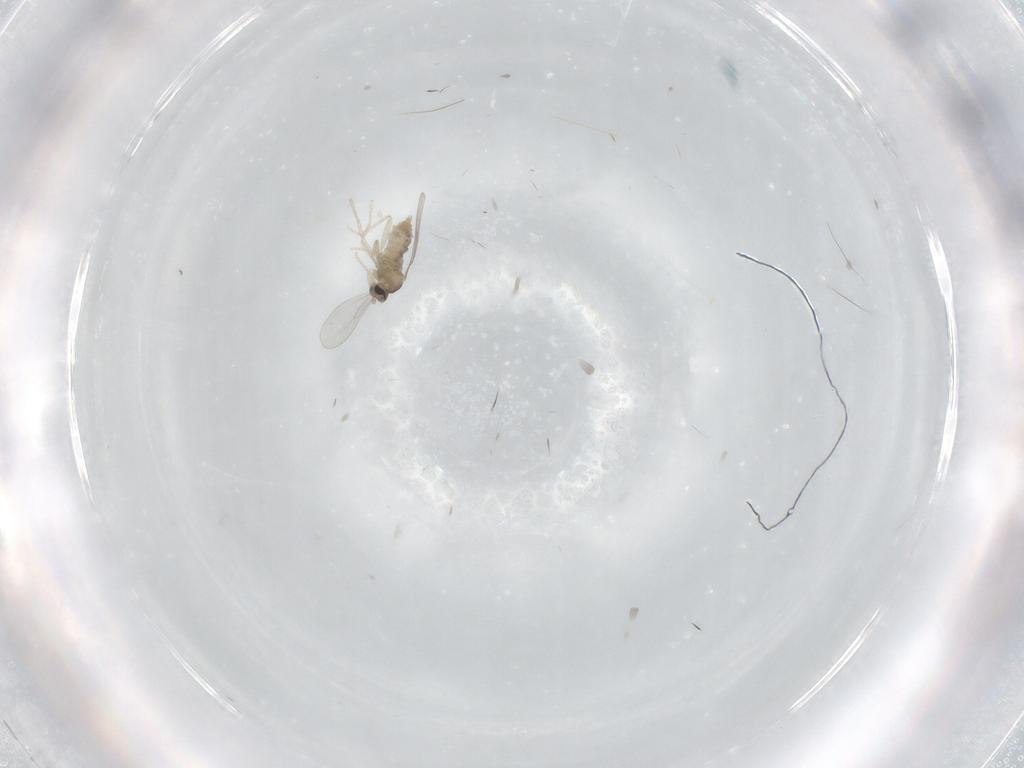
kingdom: Animalia
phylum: Arthropoda
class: Insecta
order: Diptera
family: Cecidomyiidae
